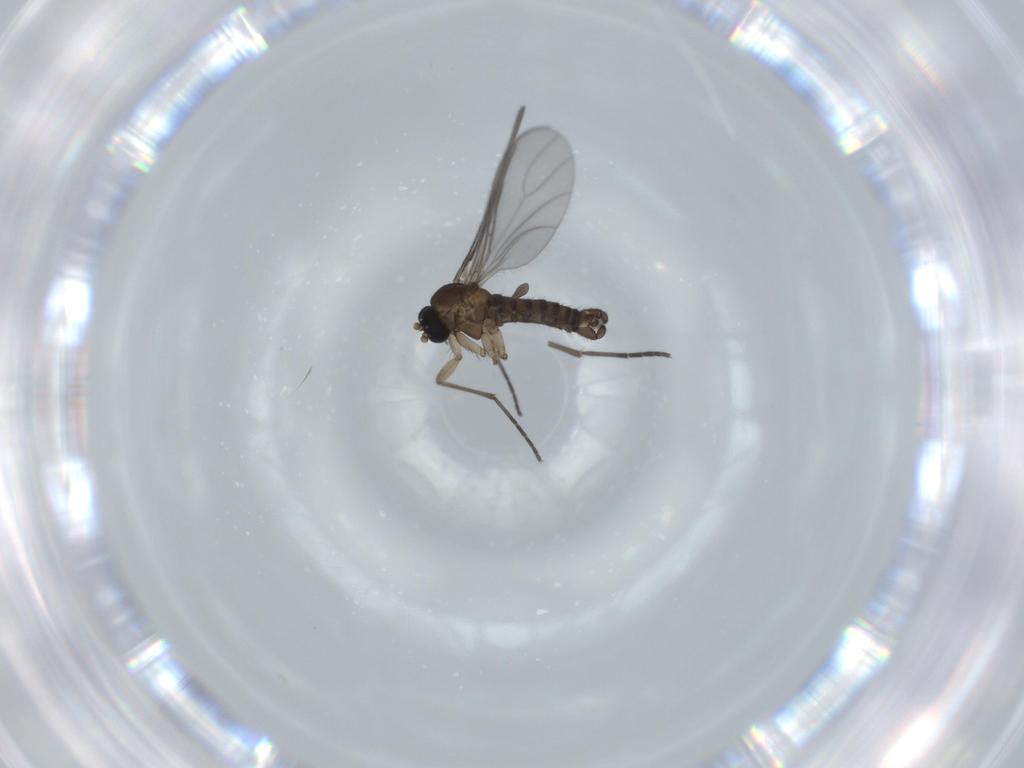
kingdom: Animalia
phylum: Arthropoda
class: Insecta
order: Diptera
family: Sciaridae
